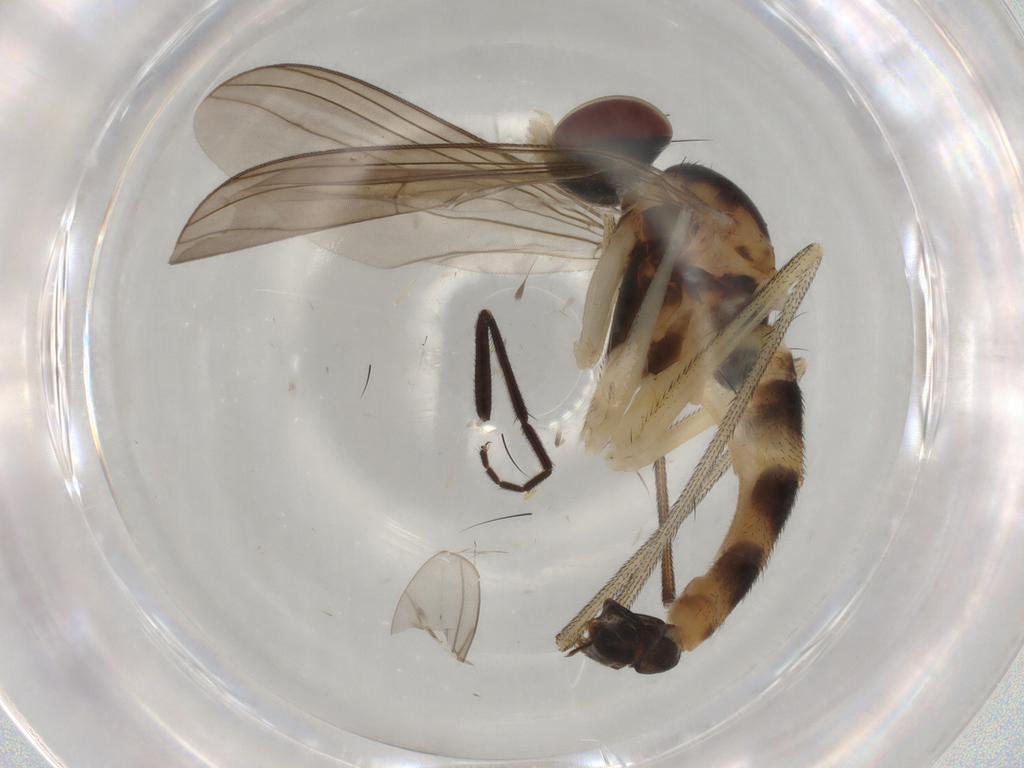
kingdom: Animalia
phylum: Arthropoda
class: Insecta
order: Diptera
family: Empididae
